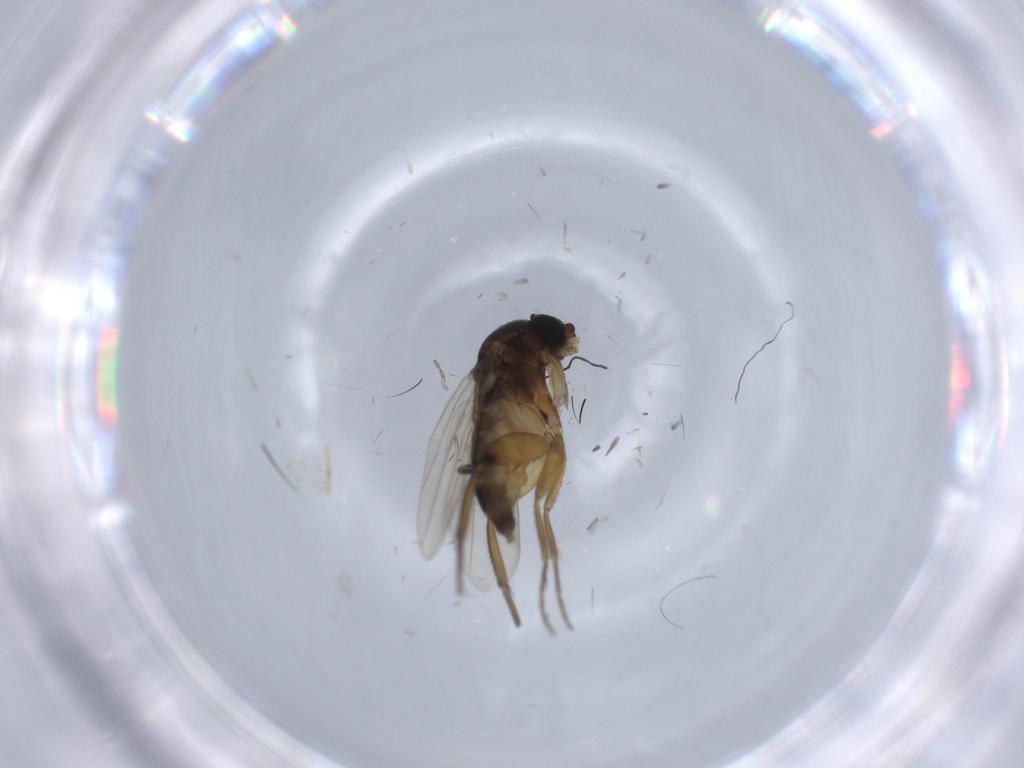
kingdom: Animalia
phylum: Arthropoda
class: Insecta
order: Diptera
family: Mycetophilidae
